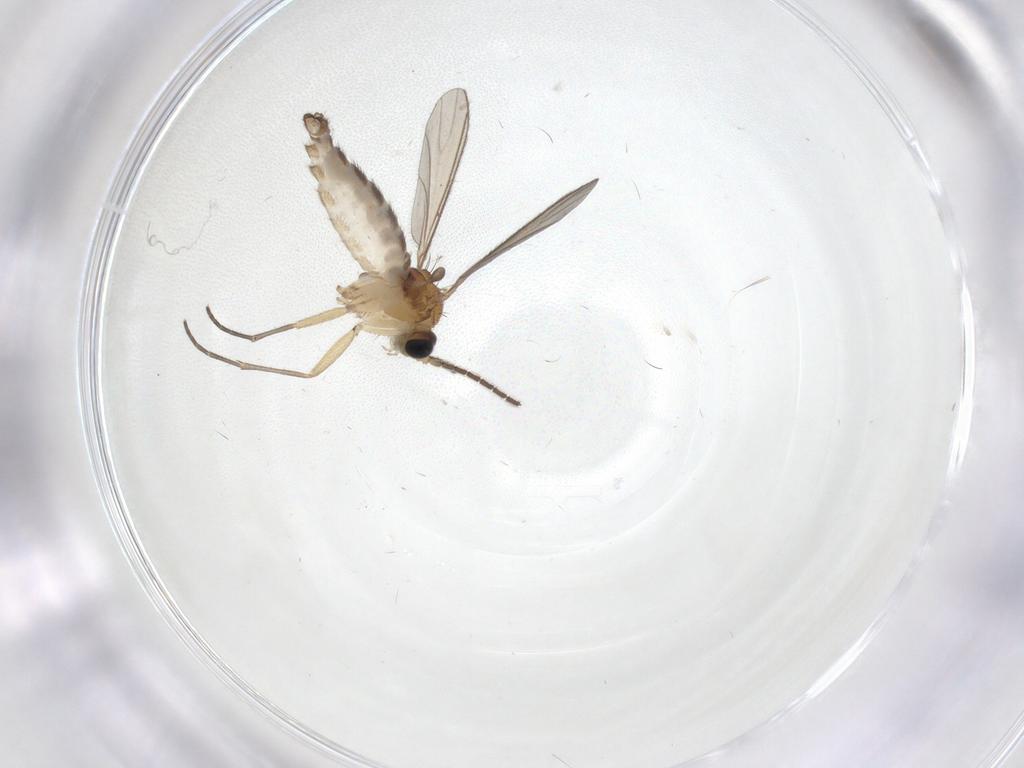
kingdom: Animalia
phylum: Arthropoda
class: Insecta
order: Diptera
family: Sciaridae
